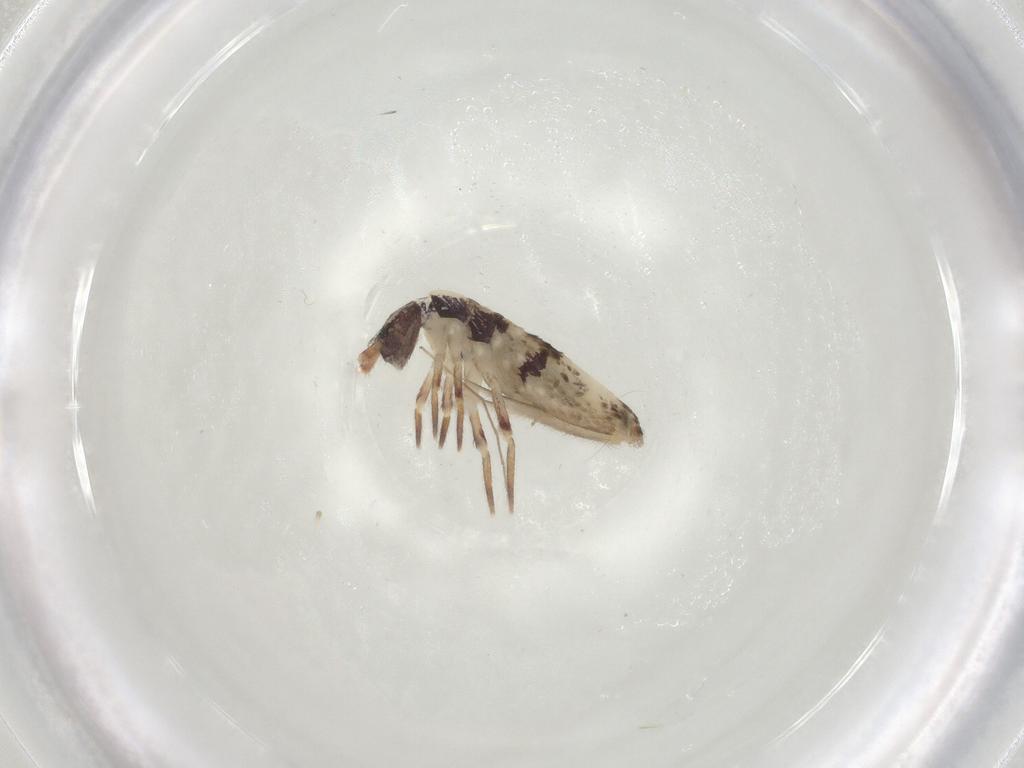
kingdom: Animalia
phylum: Arthropoda
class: Collembola
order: Entomobryomorpha
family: Entomobryidae
